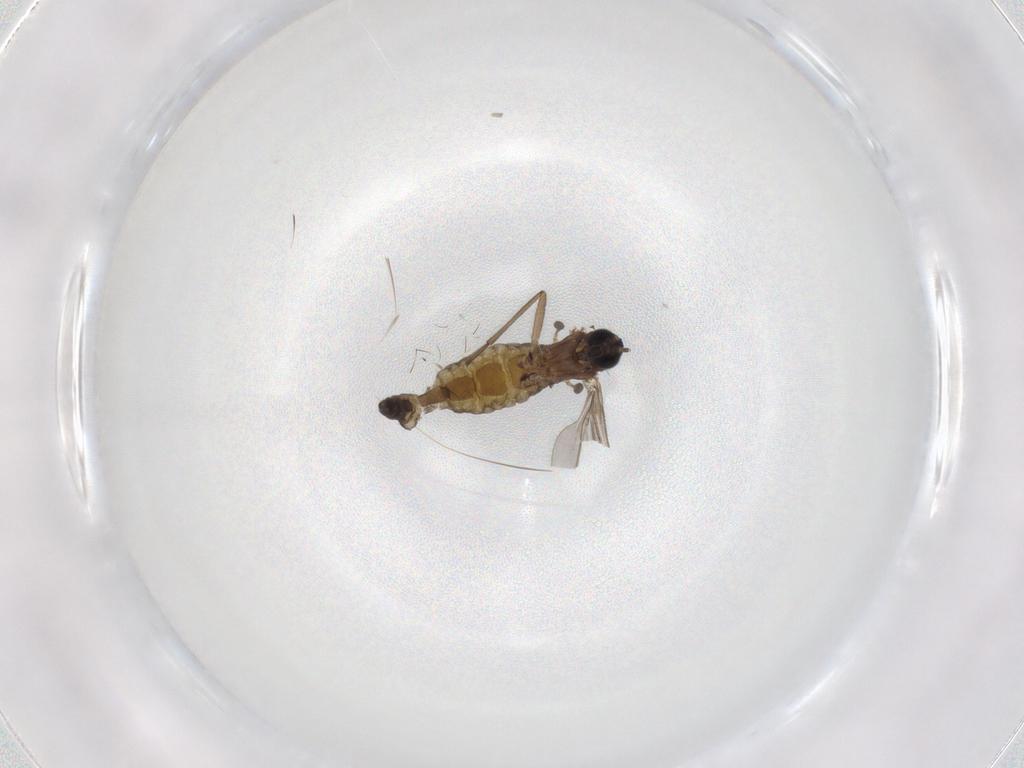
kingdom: Animalia
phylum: Arthropoda
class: Insecta
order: Diptera
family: Sciaridae
